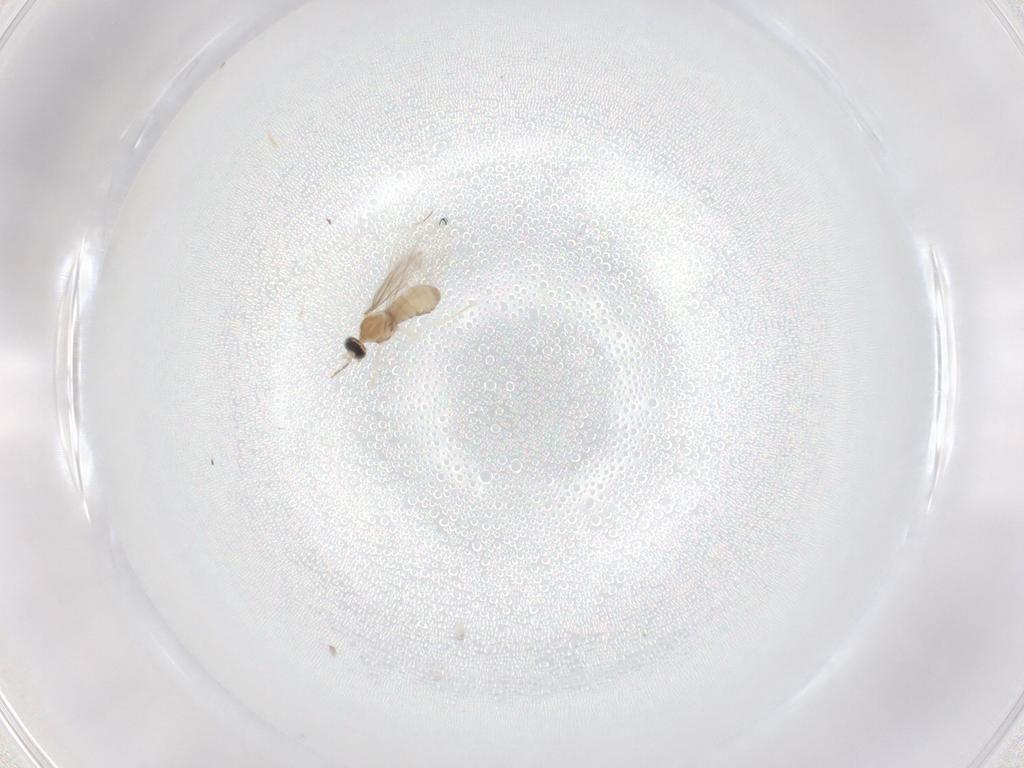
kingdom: Animalia
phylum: Arthropoda
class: Insecta
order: Diptera
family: Cecidomyiidae
